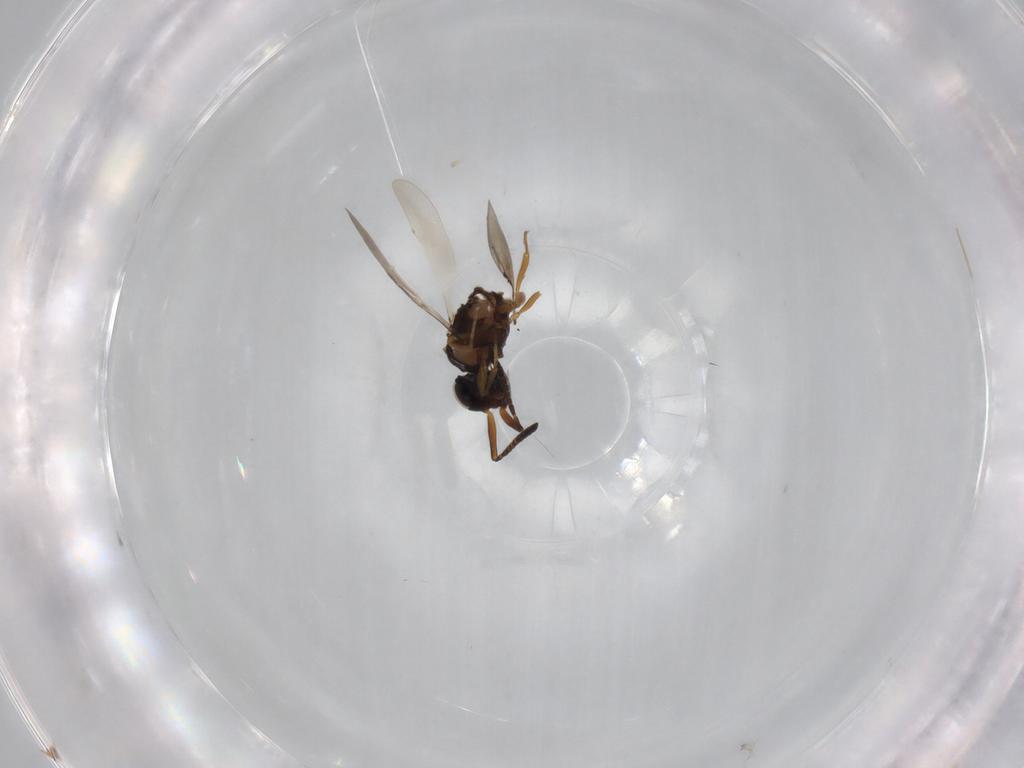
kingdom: Animalia
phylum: Arthropoda
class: Insecta
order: Hymenoptera
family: Ceraphronidae
